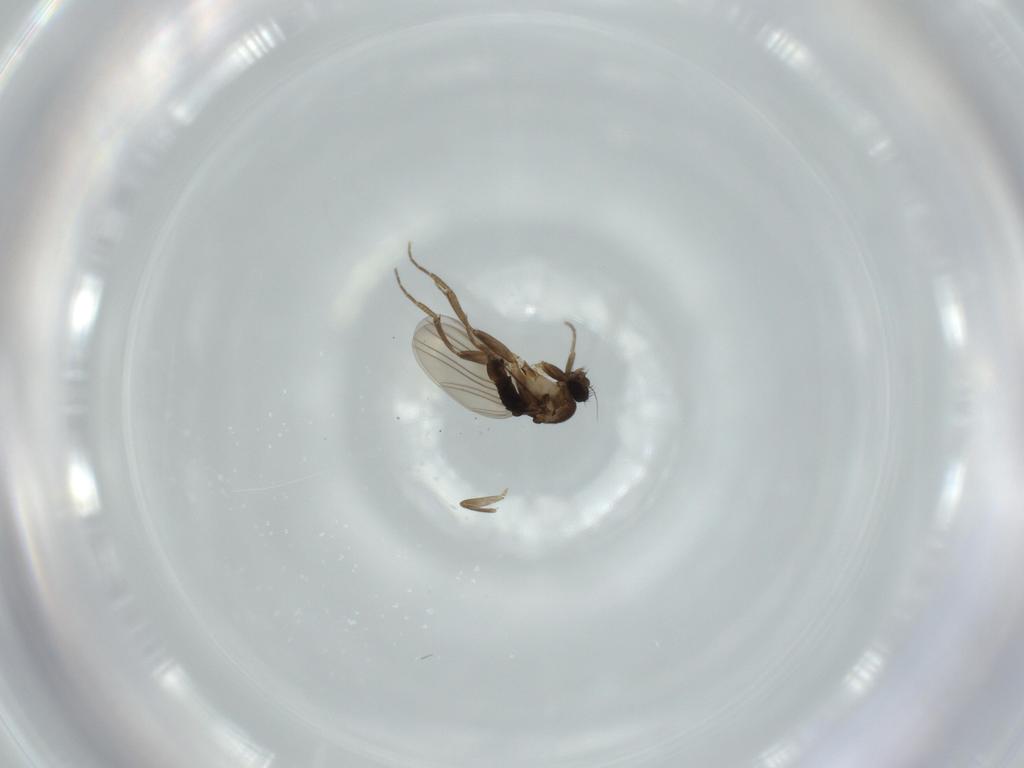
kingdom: Animalia
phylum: Arthropoda
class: Insecta
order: Diptera
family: Phoridae
